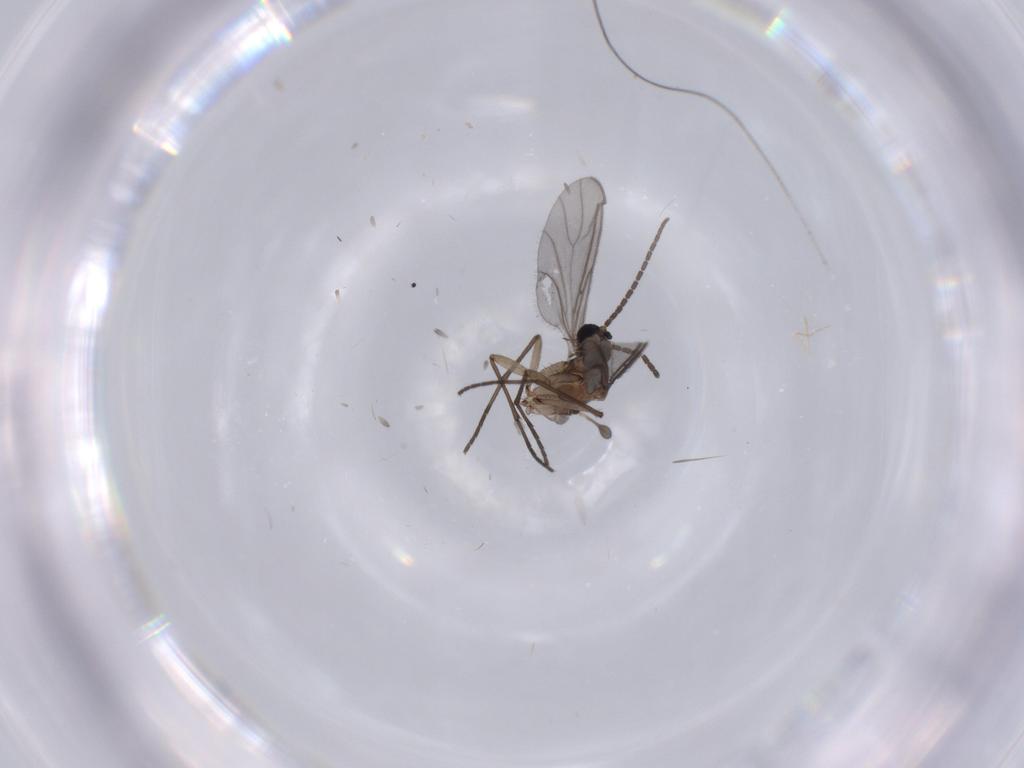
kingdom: Animalia
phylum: Arthropoda
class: Insecta
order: Diptera
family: Sciaridae
